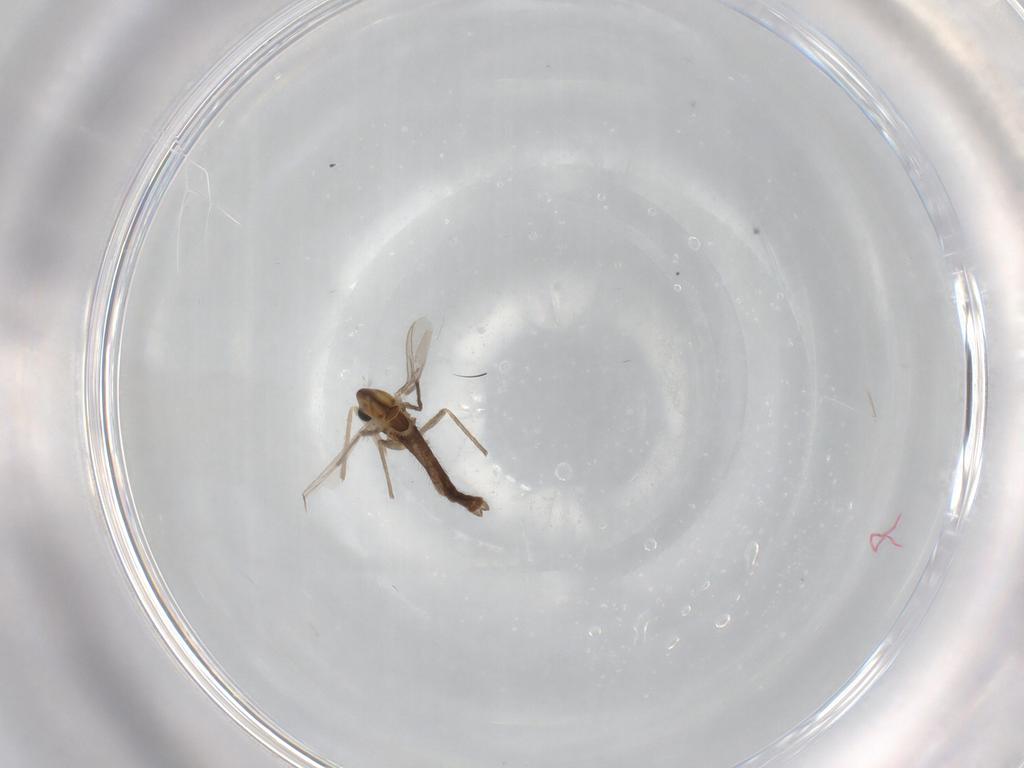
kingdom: Animalia
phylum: Arthropoda
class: Insecta
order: Diptera
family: Chironomidae
